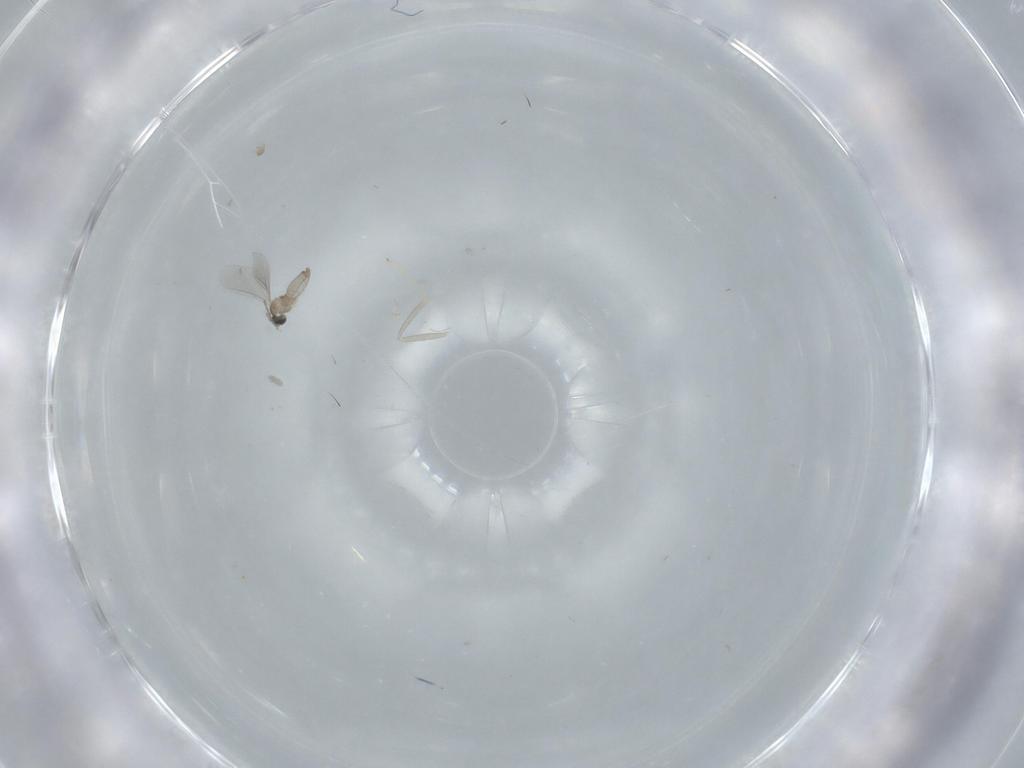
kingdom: Animalia
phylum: Arthropoda
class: Insecta
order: Diptera
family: Cecidomyiidae
